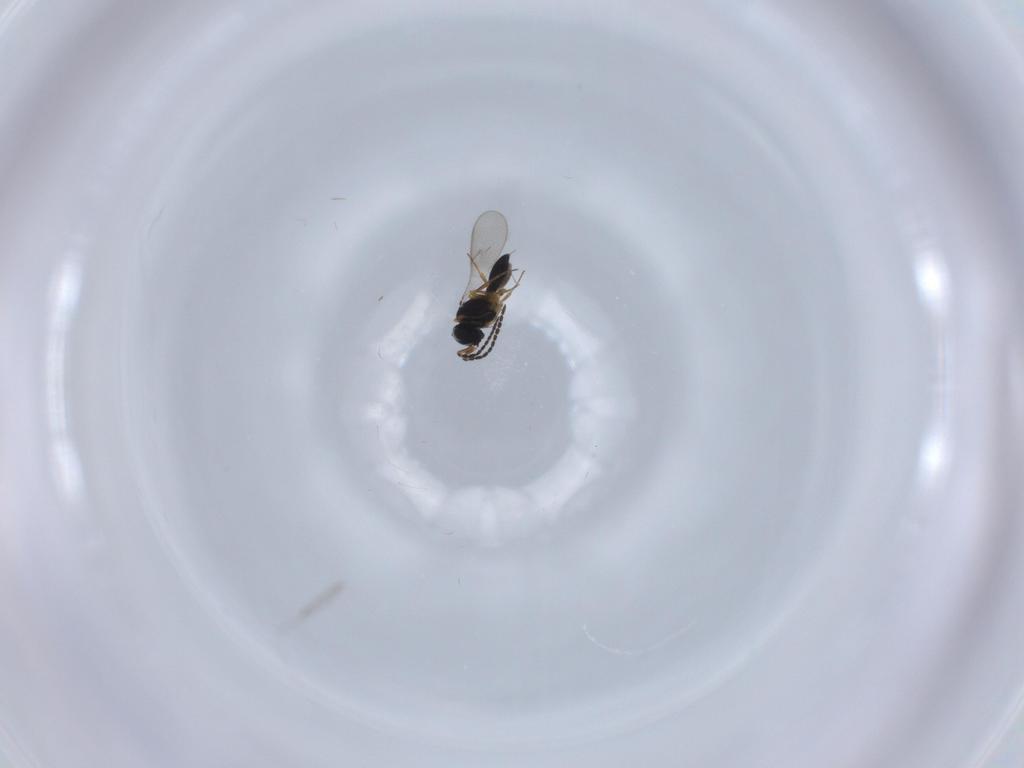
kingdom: Animalia
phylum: Arthropoda
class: Insecta
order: Hymenoptera
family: Scelionidae
